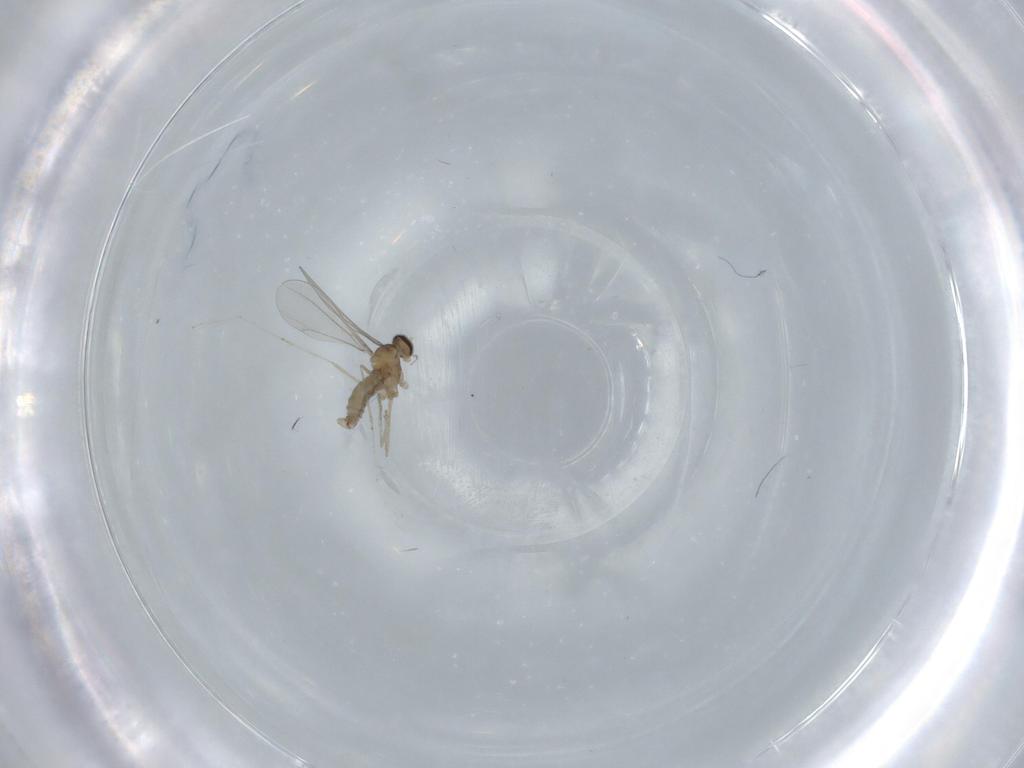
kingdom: Animalia
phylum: Arthropoda
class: Insecta
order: Diptera
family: Cecidomyiidae
